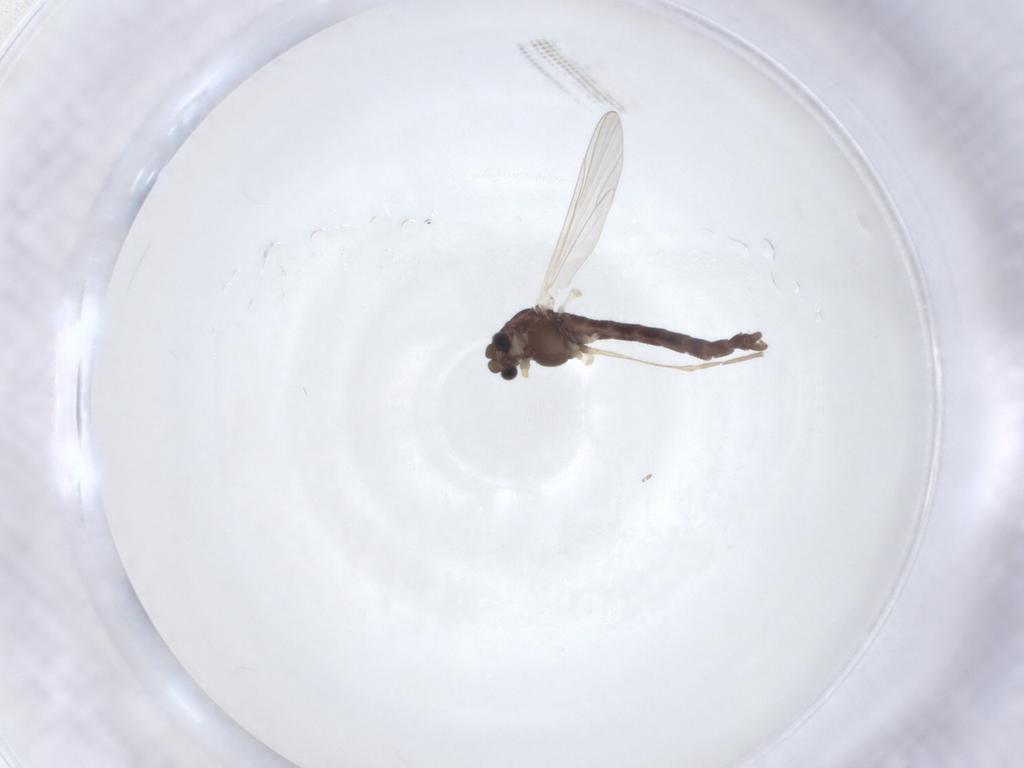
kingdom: Animalia
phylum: Arthropoda
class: Insecta
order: Diptera
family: Chironomidae
